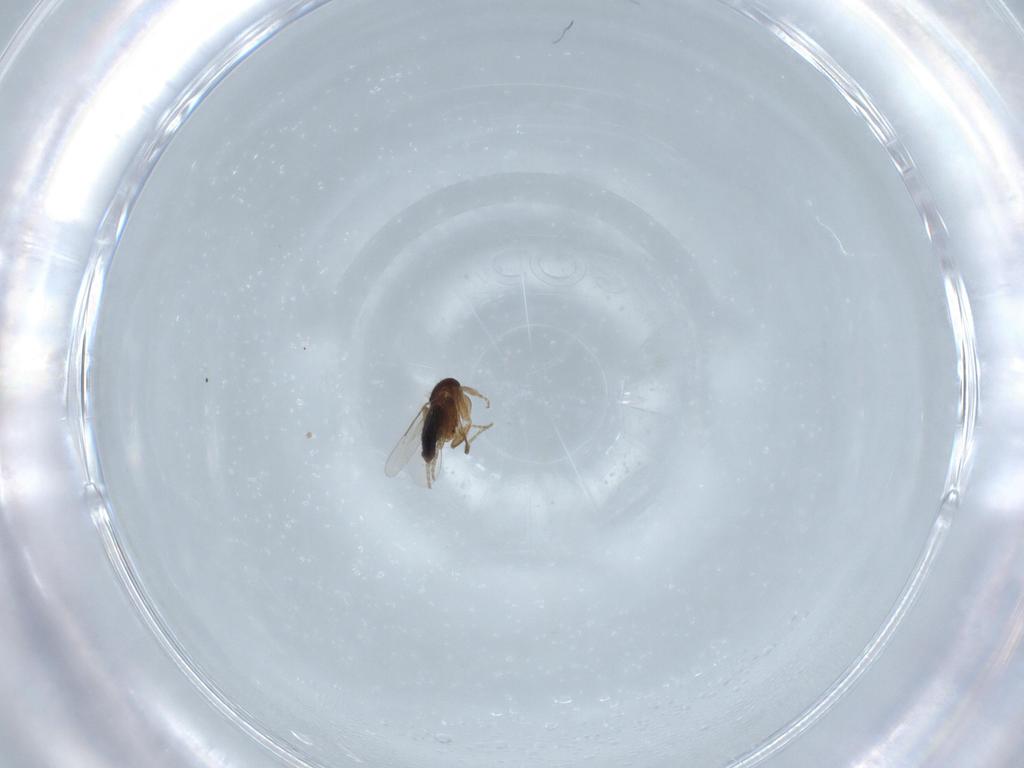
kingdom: Animalia
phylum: Arthropoda
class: Insecta
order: Diptera
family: Phoridae
